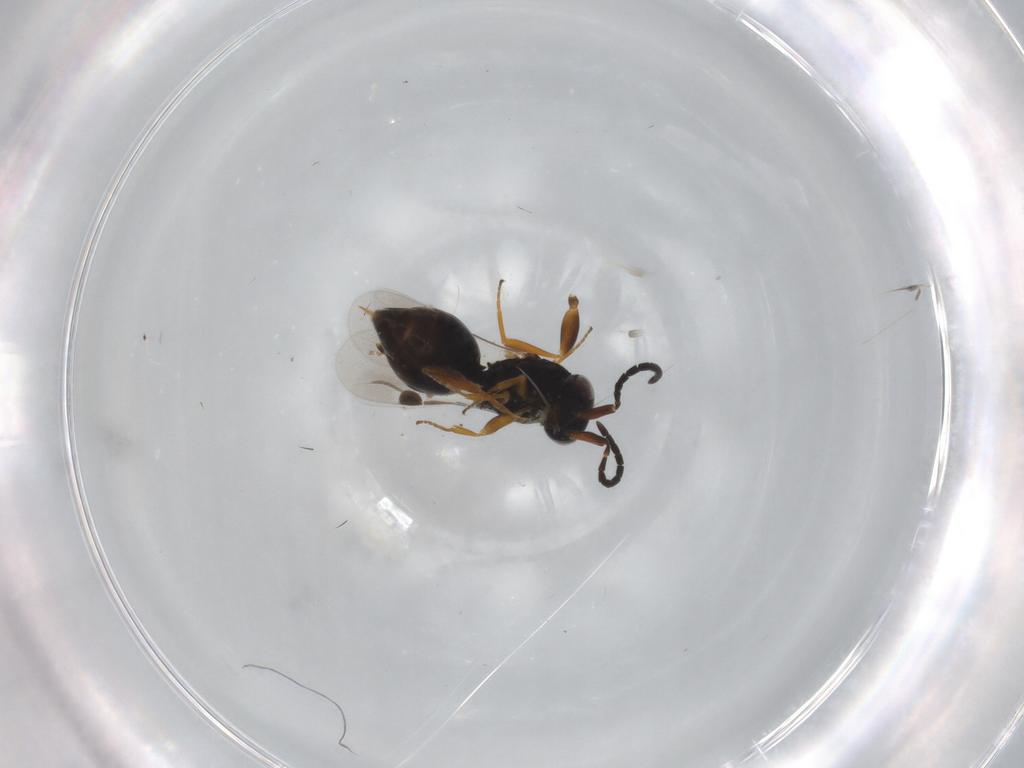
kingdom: Animalia
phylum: Arthropoda
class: Insecta
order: Hymenoptera
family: Megaspilidae
